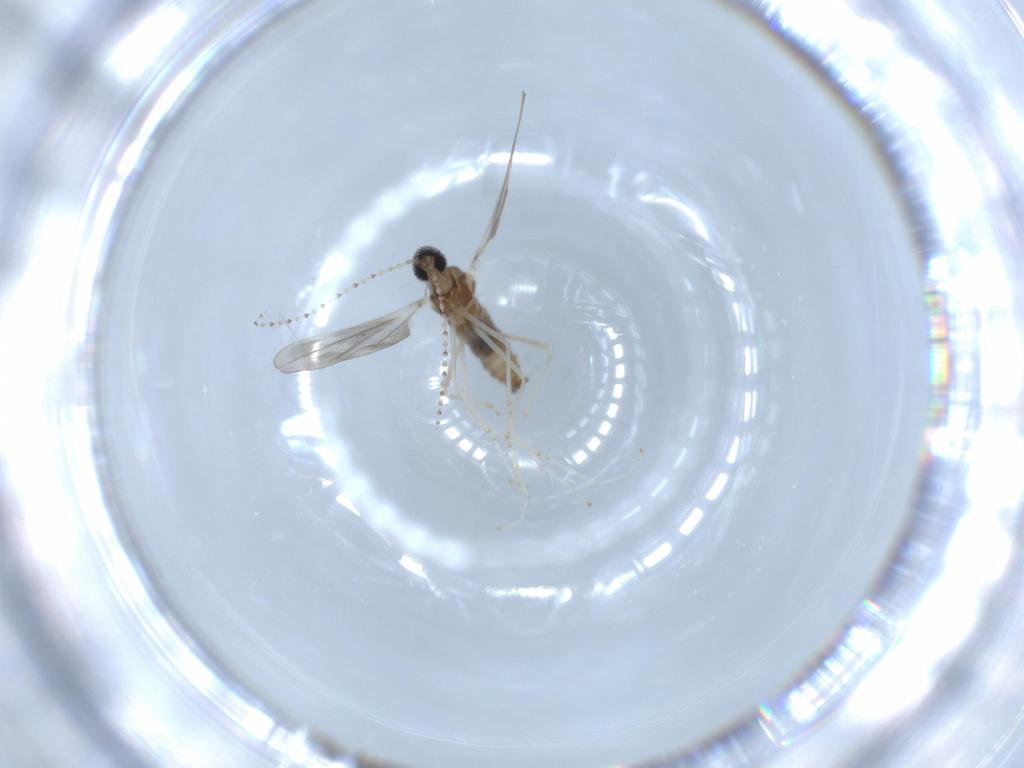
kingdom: Animalia
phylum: Arthropoda
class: Insecta
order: Diptera
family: Cecidomyiidae
